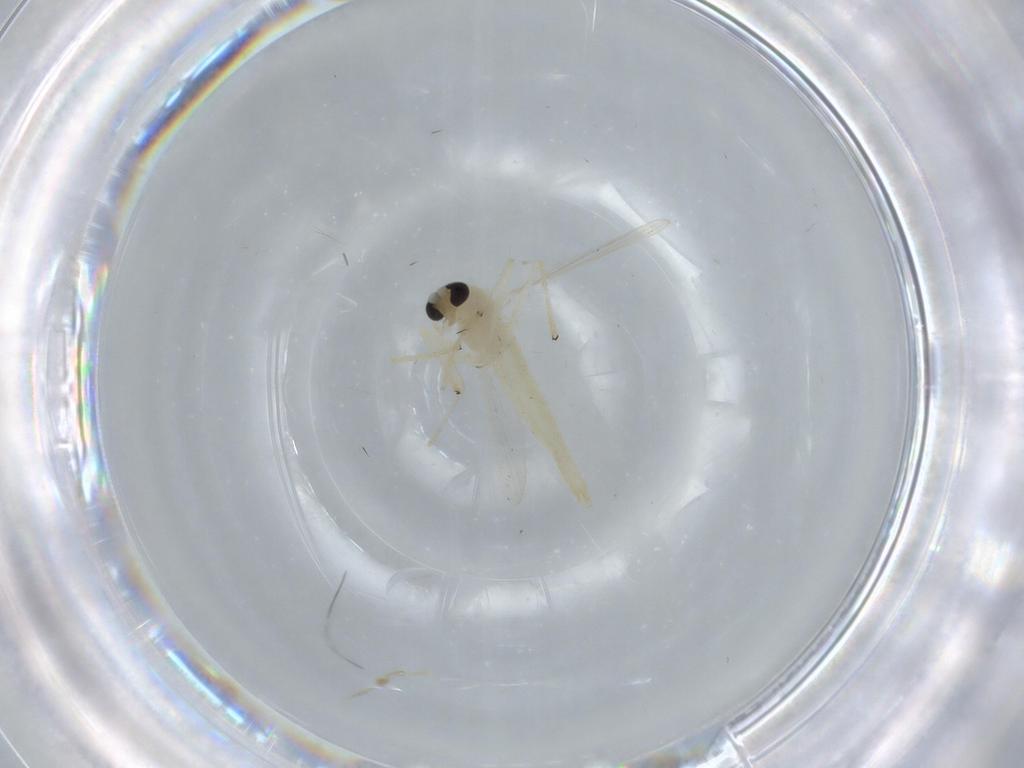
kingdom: Animalia
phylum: Arthropoda
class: Insecta
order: Diptera
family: Chironomidae
